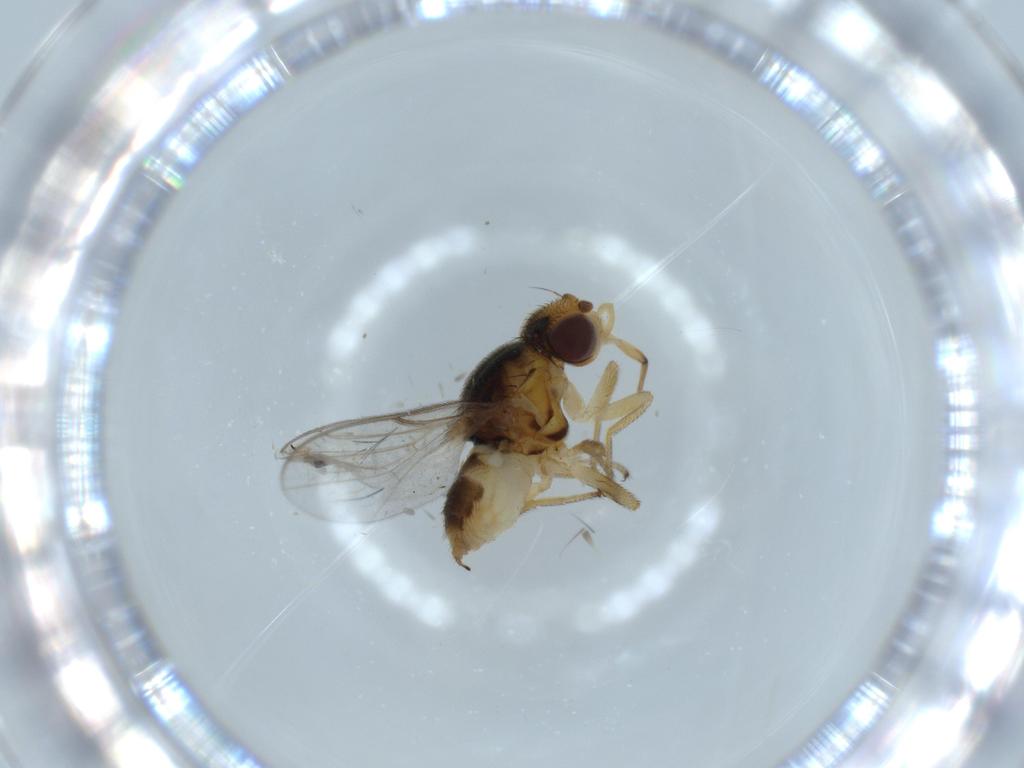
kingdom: Animalia
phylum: Arthropoda
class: Insecta
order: Diptera
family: Chloropidae
